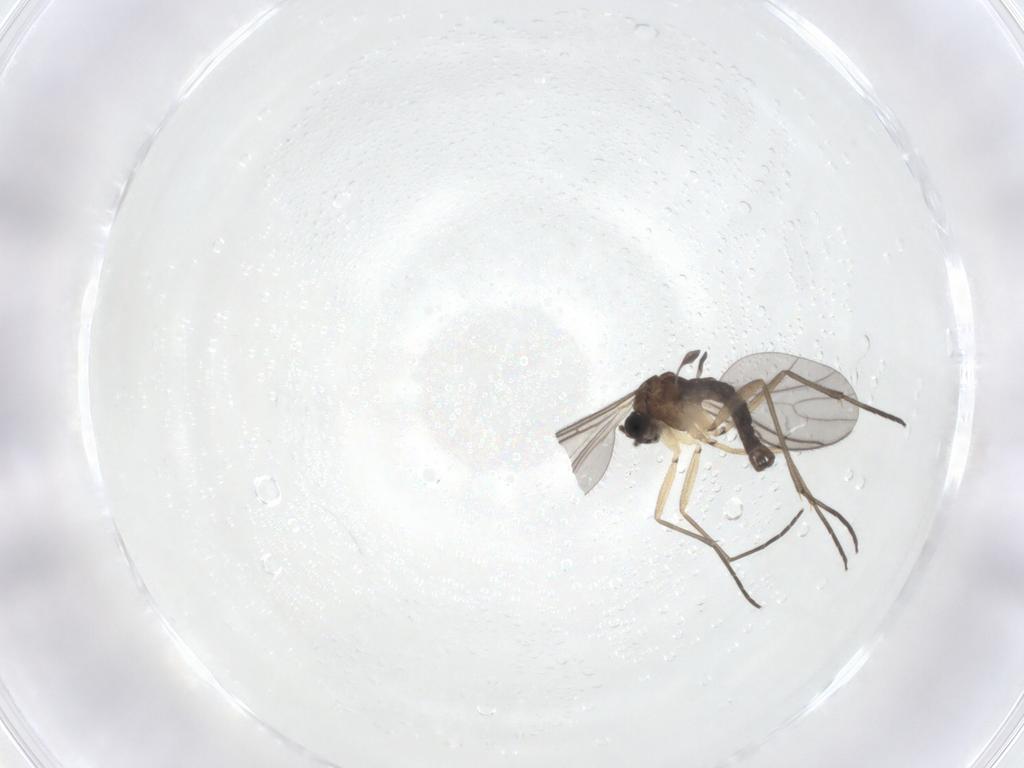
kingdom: Animalia
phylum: Arthropoda
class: Insecta
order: Diptera
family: Sciaridae
